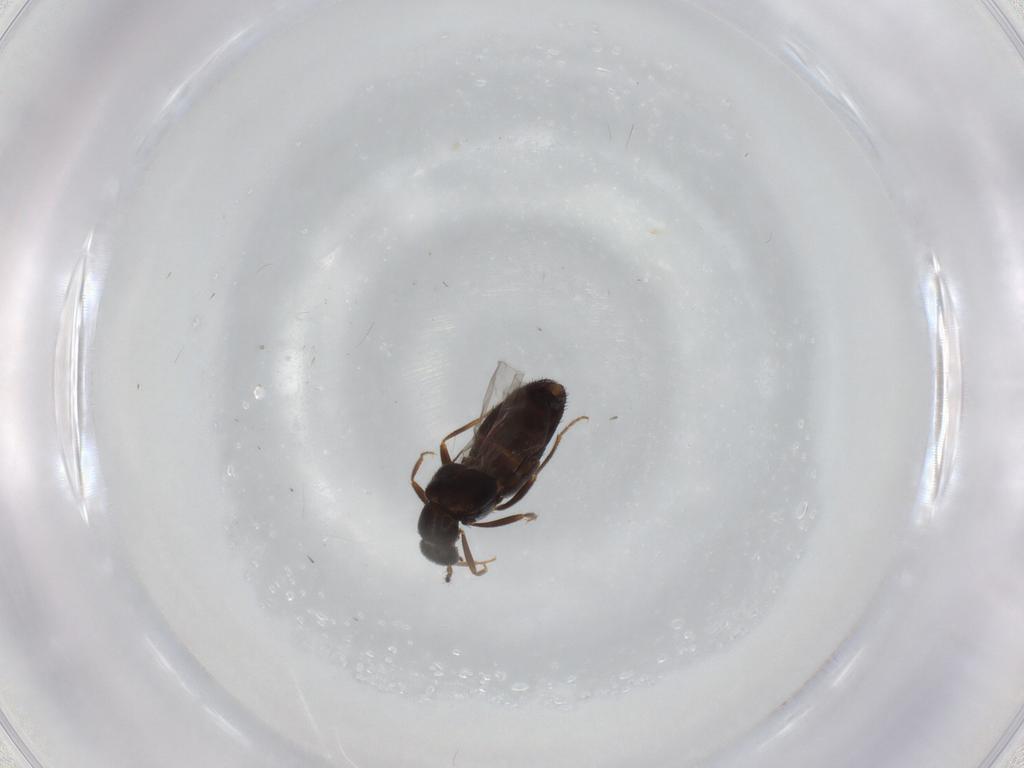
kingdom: Animalia
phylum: Arthropoda
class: Insecta
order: Coleoptera
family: Staphylinidae
